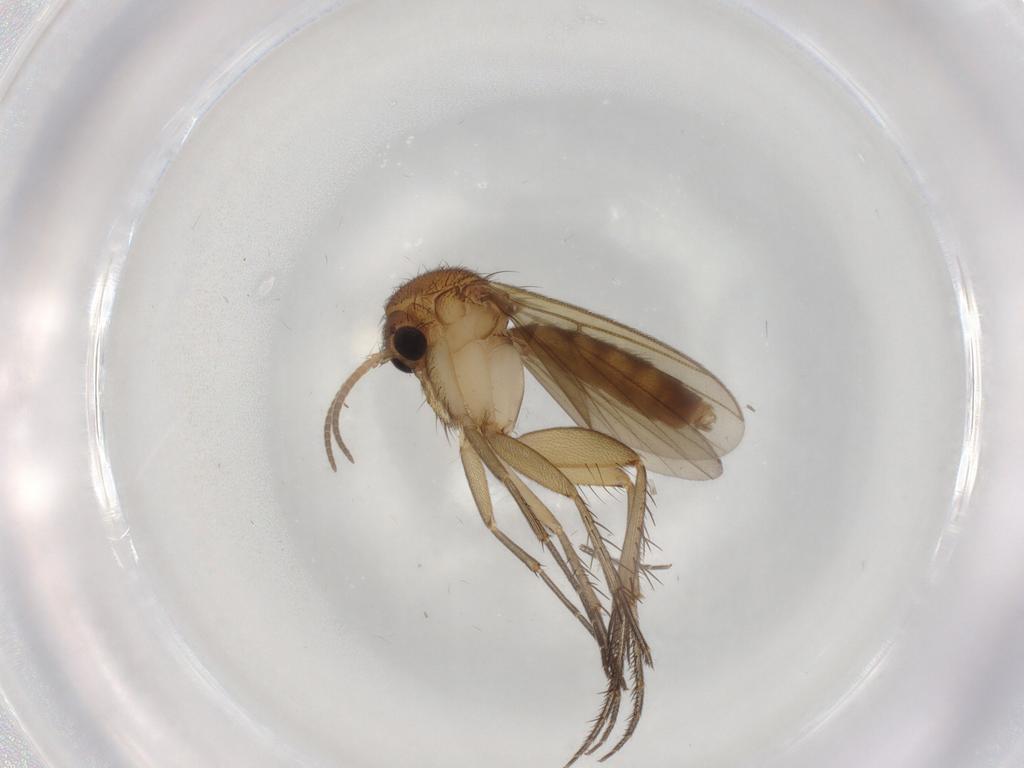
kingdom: Animalia
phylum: Arthropoda
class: Insecta
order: Diptera
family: Mycetophilidae
